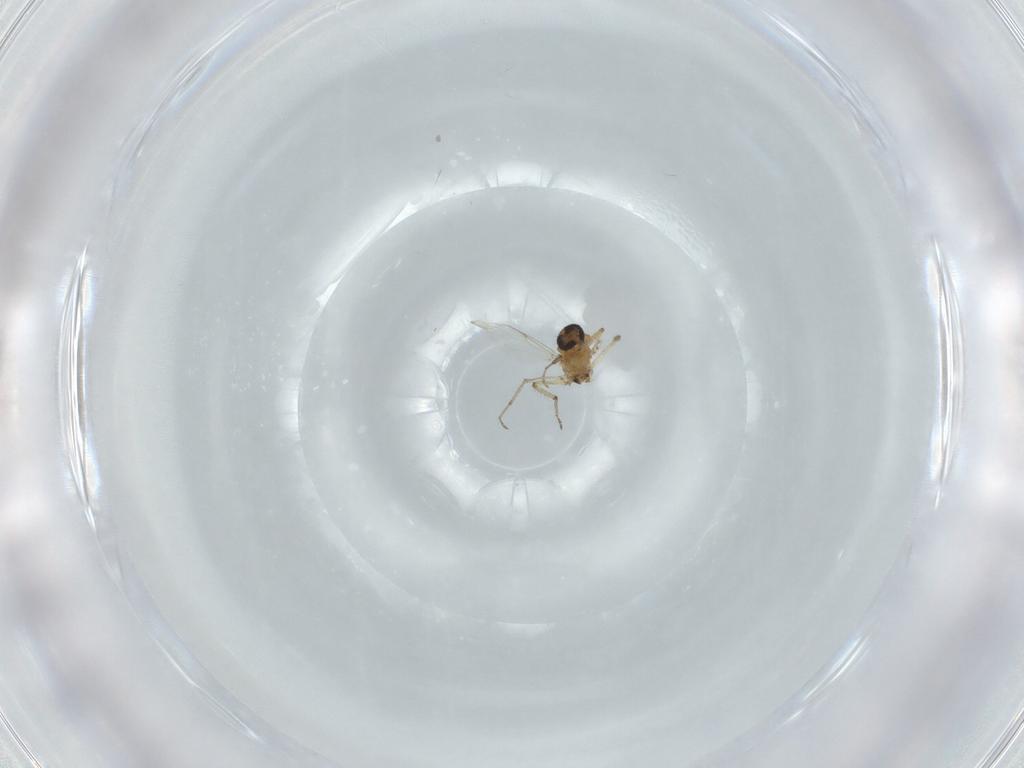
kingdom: Animalia
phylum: Arthropoda
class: Insecta
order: Diptera
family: Ceratopogonidae
